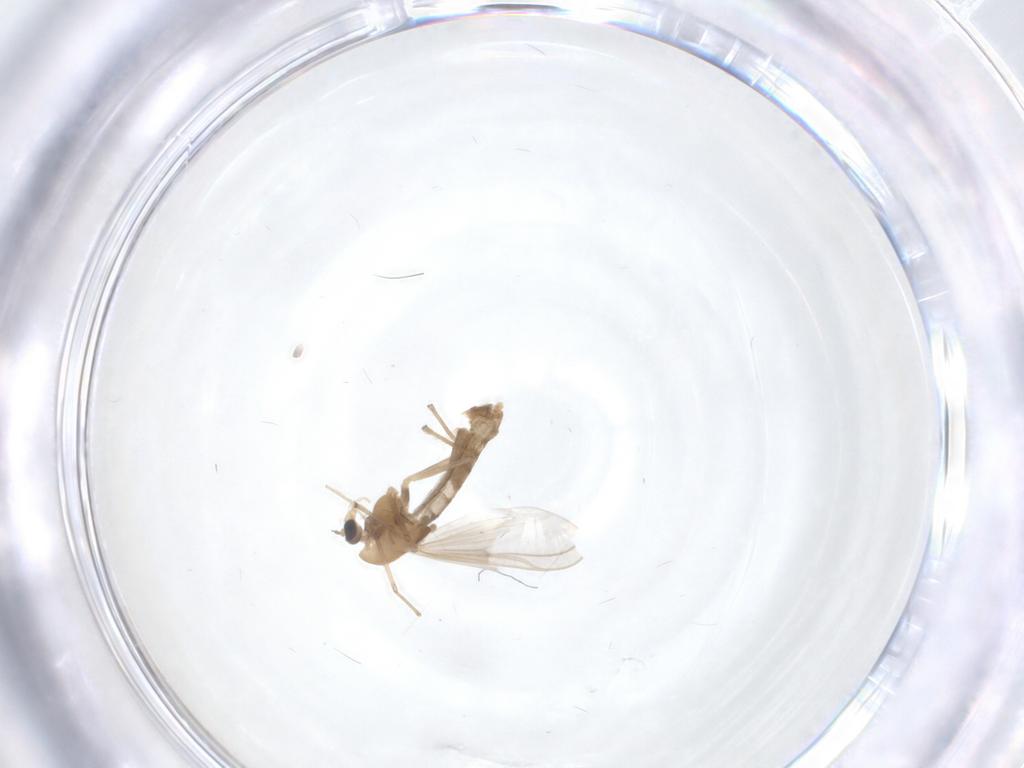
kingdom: Animalia
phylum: Arthropoda
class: Insecta
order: Diptera
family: Chironomidae
